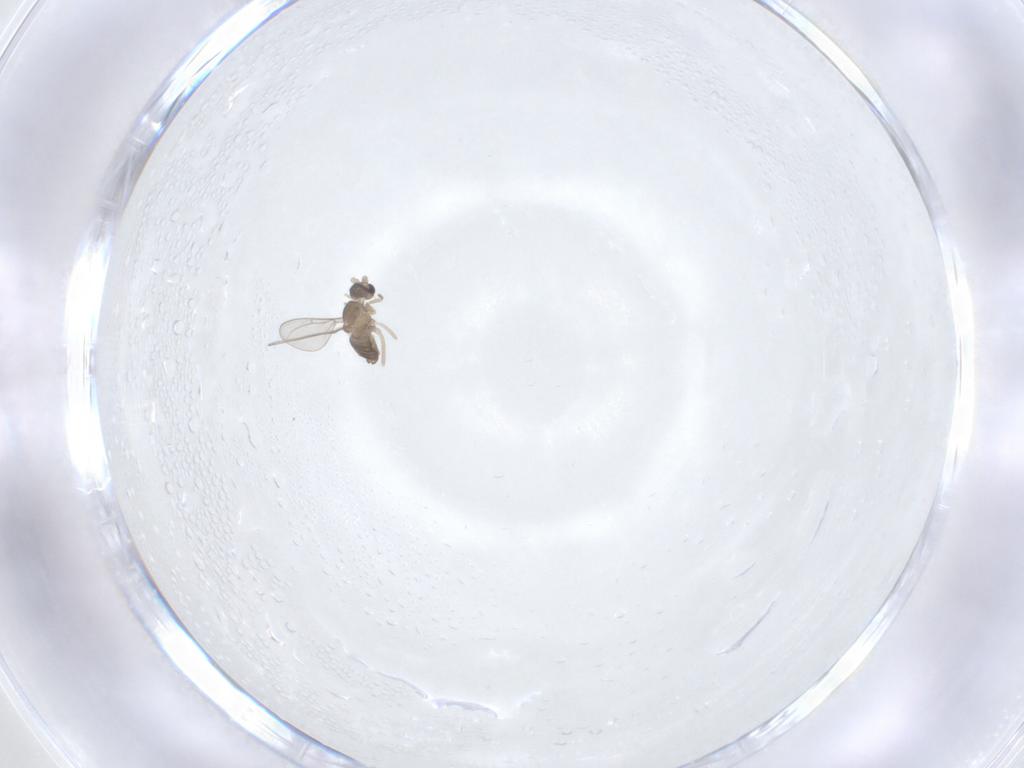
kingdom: Animalia
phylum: Arthropoda
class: Insecta
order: Diptera
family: Cecidomyiidae
